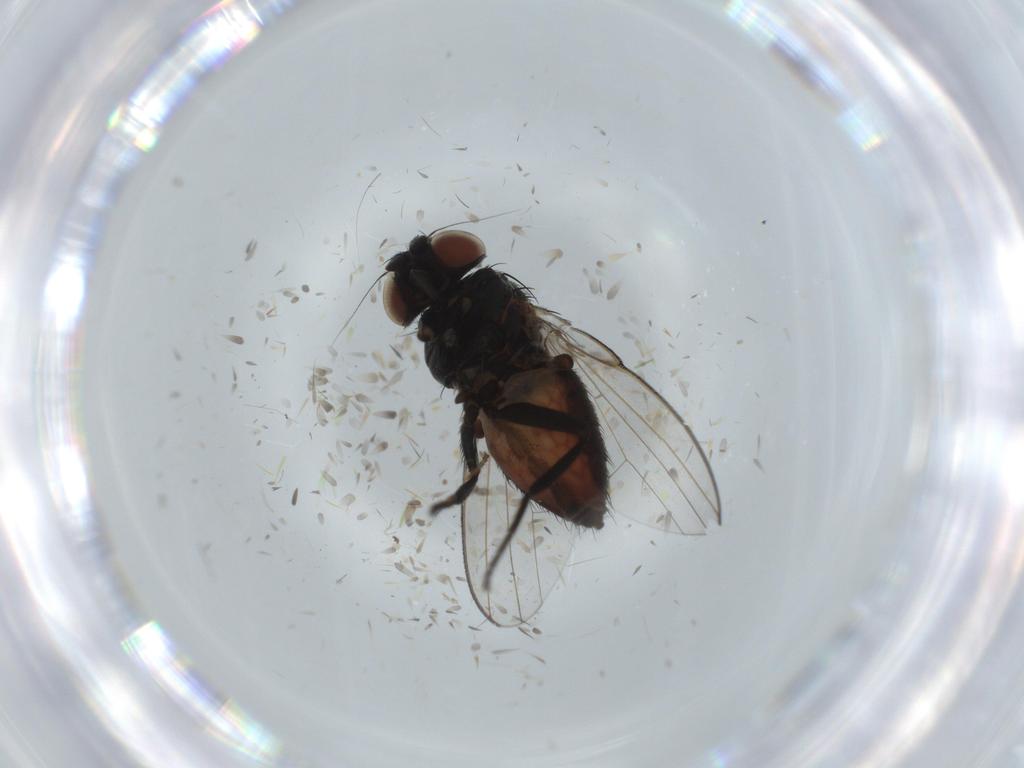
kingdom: Animalia
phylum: Arthropoda
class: Insecta
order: Diptera
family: Milichiidae
